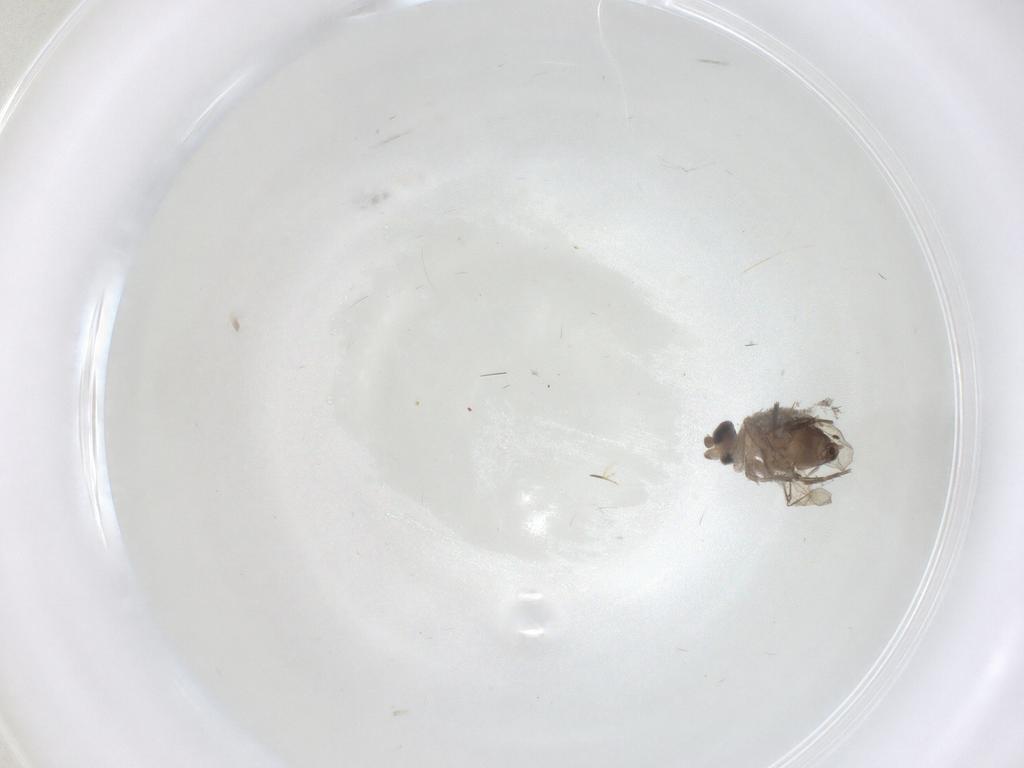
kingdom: Animalia
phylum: Arthropoda
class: Insecta
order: Diptera
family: Phoridae
